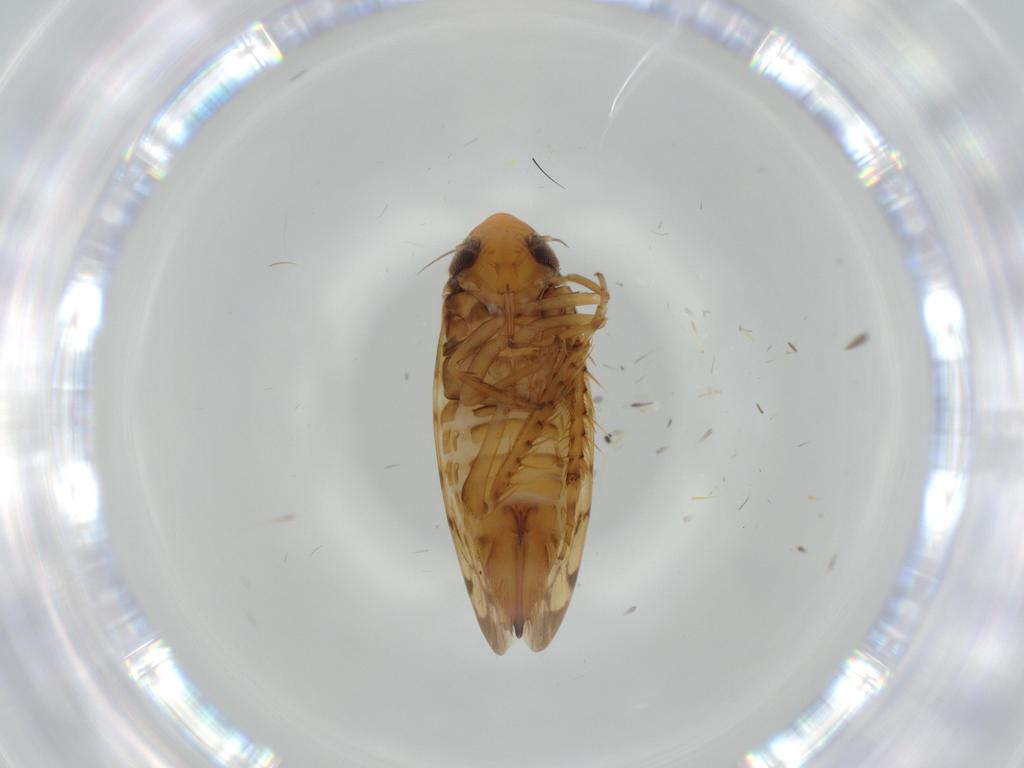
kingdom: Animalia
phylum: Arthropoda
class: Insecta
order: Hemiptera
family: Cicadellidae
